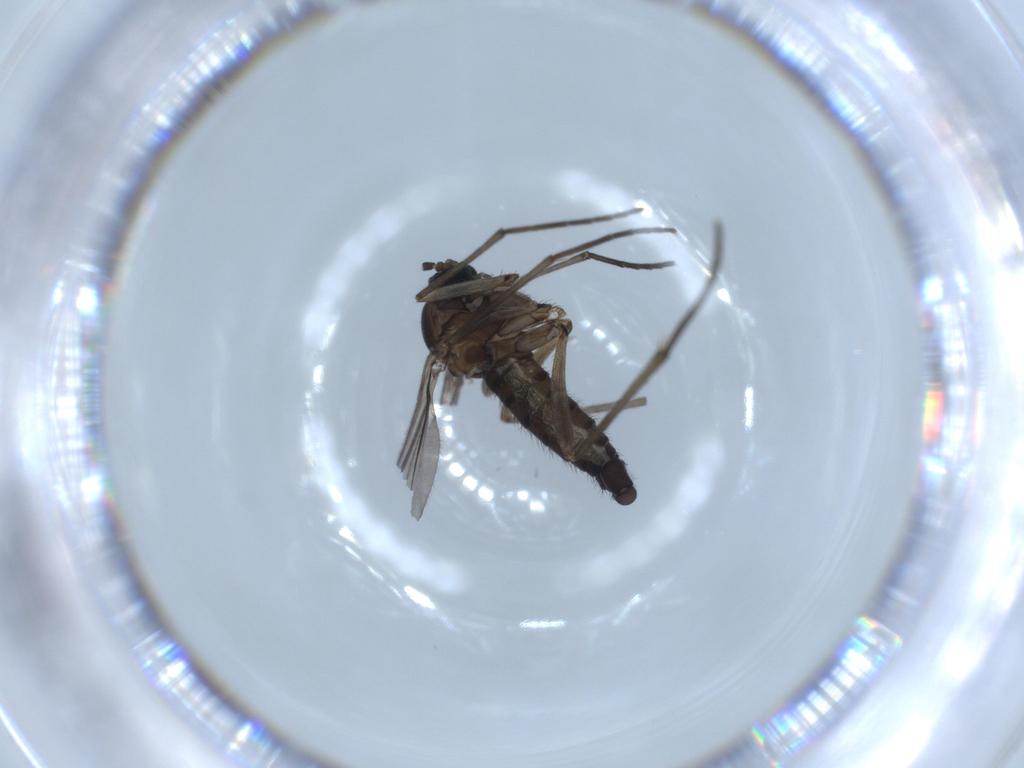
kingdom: Animalia
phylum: Arthropoda
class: Insecta
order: Diptera
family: Sciaridae
